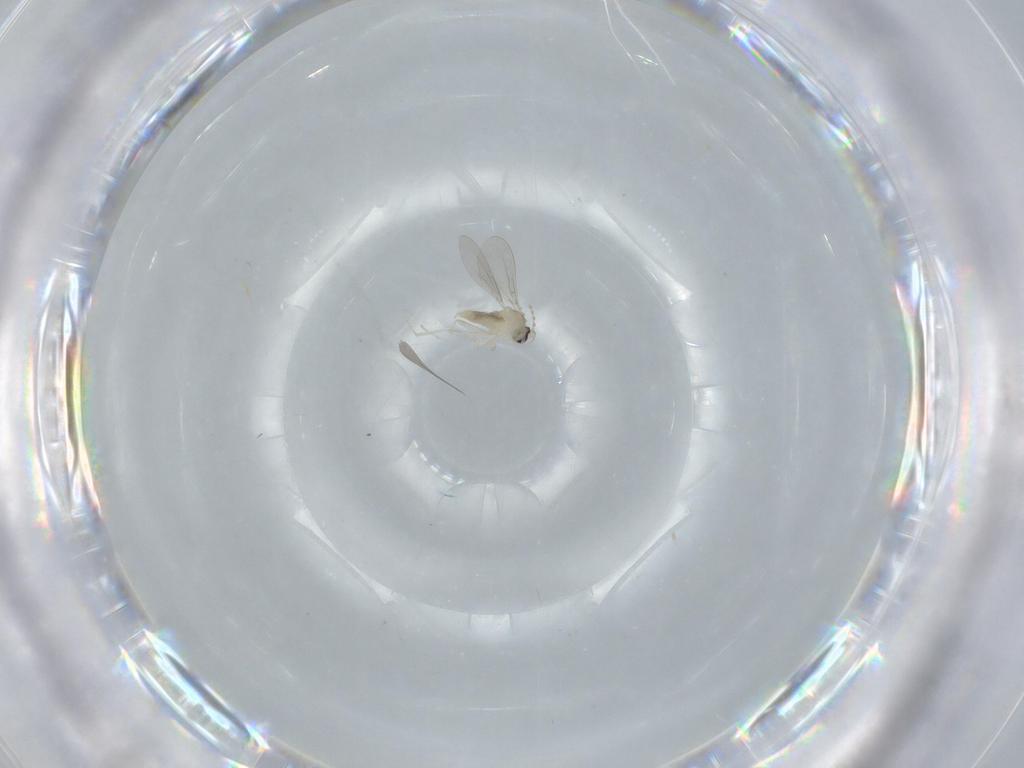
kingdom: Animalia
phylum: Arthropoda
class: Insecta
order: Diptera
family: Cecidomyiidae
